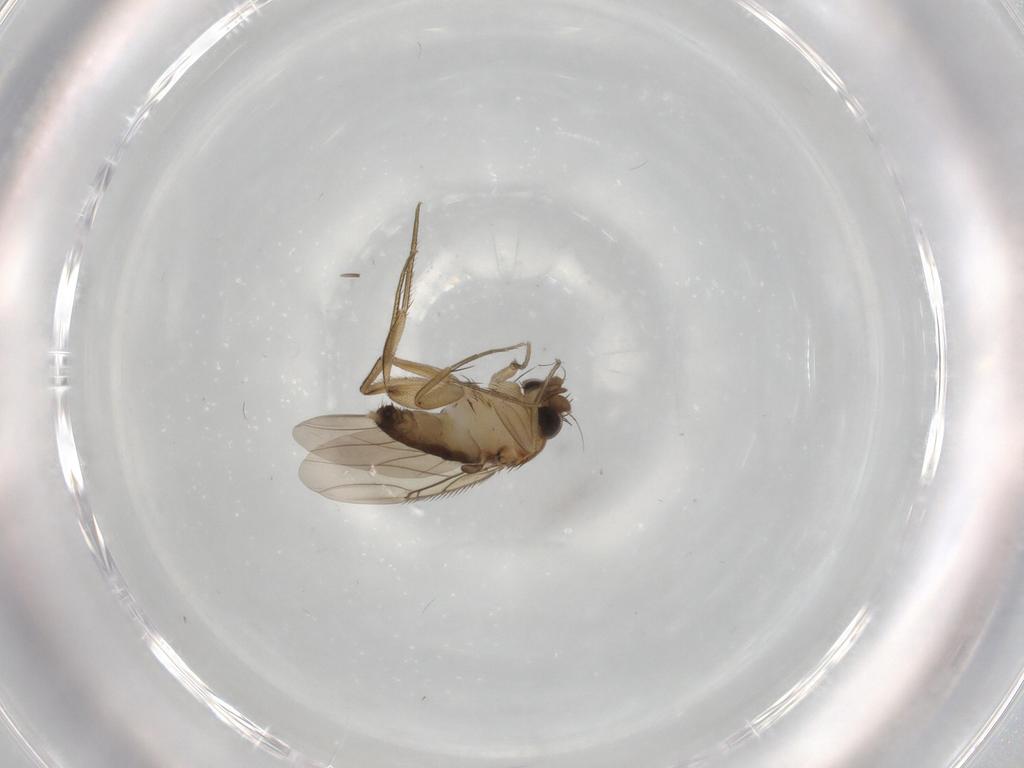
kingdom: Animalia
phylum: Arthropoda
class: Insecta
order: Diptera
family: Phoridae
